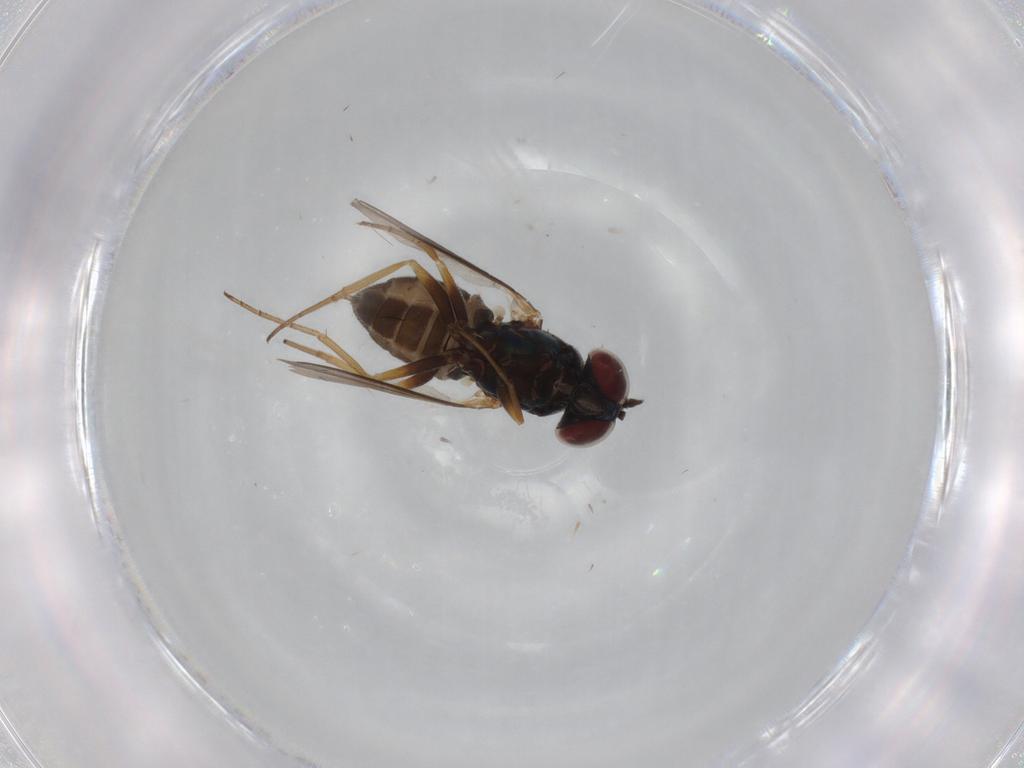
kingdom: Animalia
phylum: Arthropoda
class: Insecta
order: Diptera
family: Dolichopodidae
